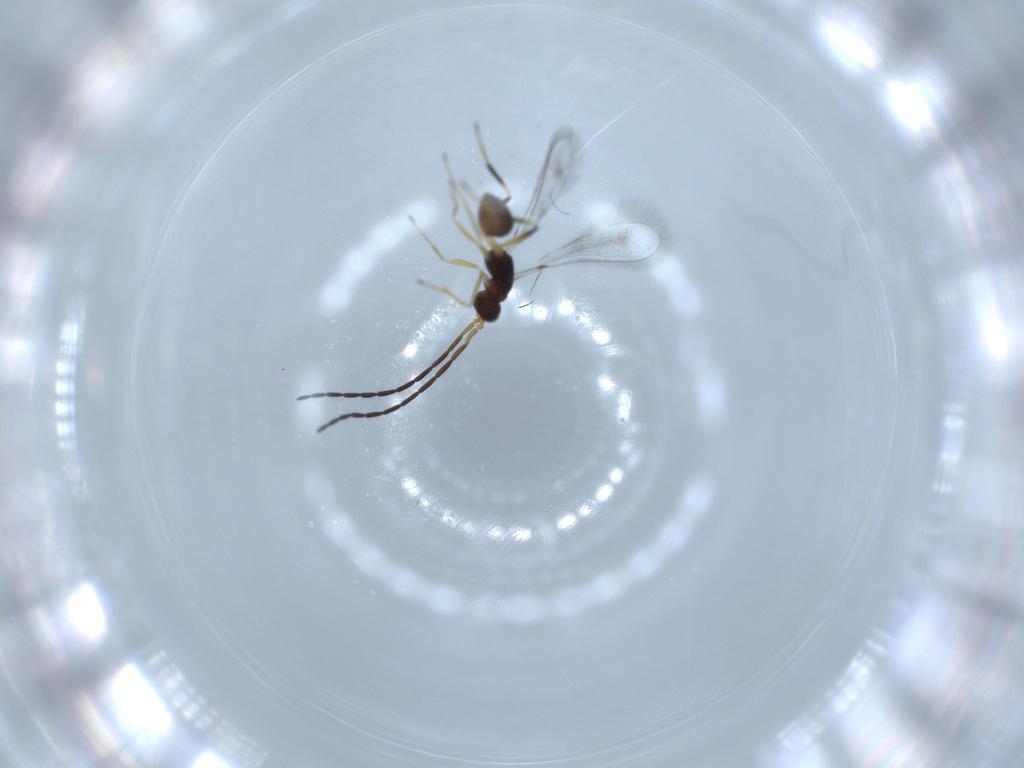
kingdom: Animalia
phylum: Arthropoda
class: Insecta
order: Hymenoptera
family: Mymaridae
